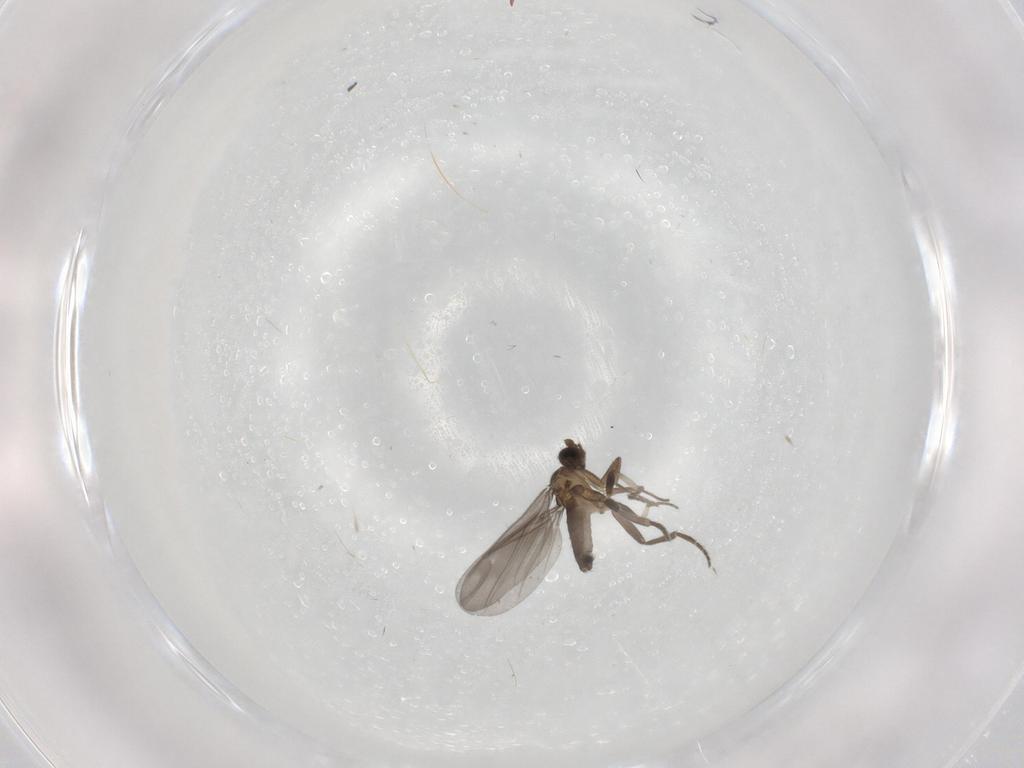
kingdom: Animalia
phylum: Arthropoda
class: Insecta
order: Diptera
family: Phoridae
